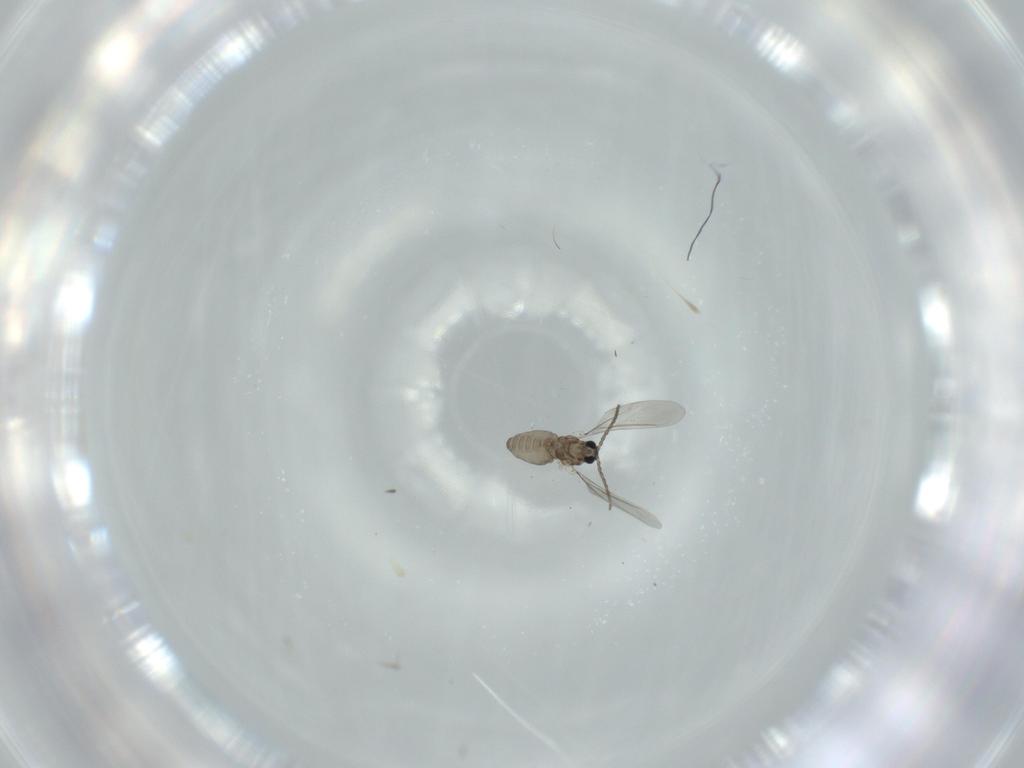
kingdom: Animalia
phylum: Arthropoda
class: Insecta
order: Diptera
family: Cecidomyiidae
